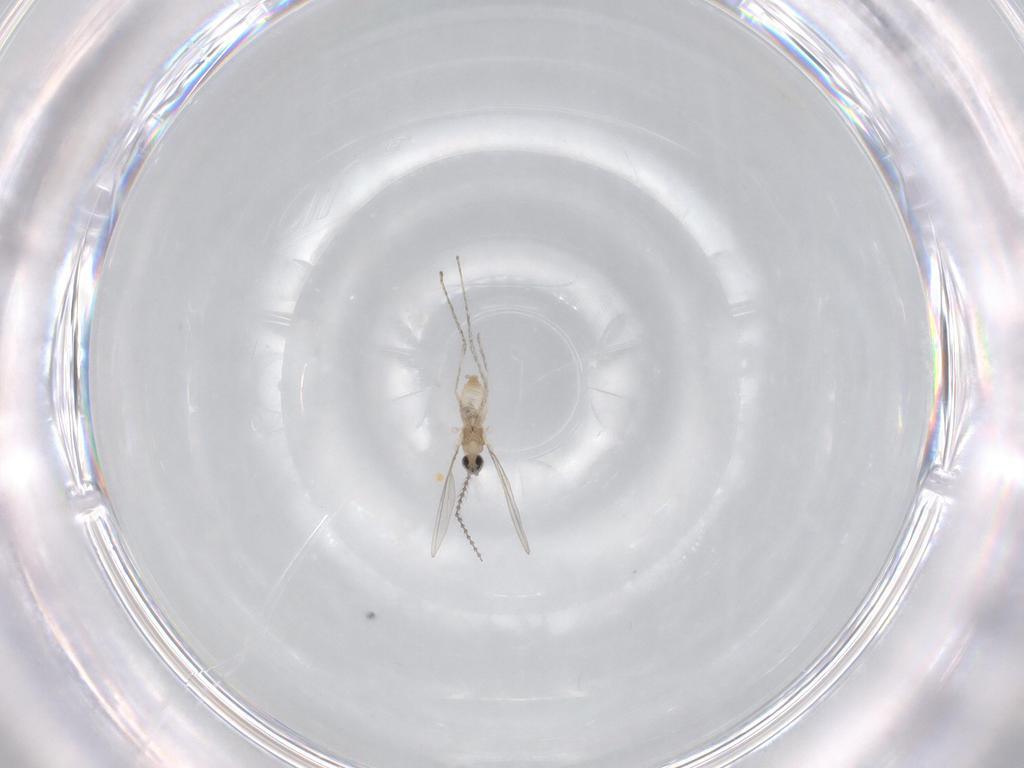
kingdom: Animalia
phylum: Arthropoda
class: Insecta
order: Diptera
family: Cecidomyiidae
